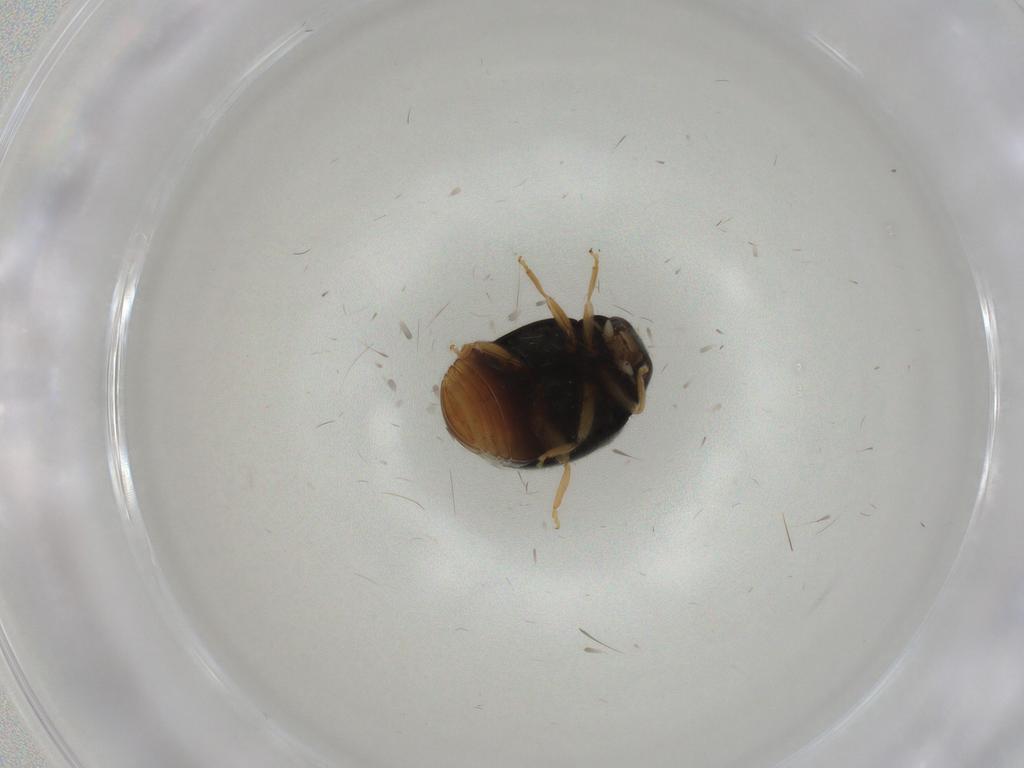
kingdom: Animalia
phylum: Arthropoda
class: Insecta
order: Coleoptera
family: Coccinellidae
